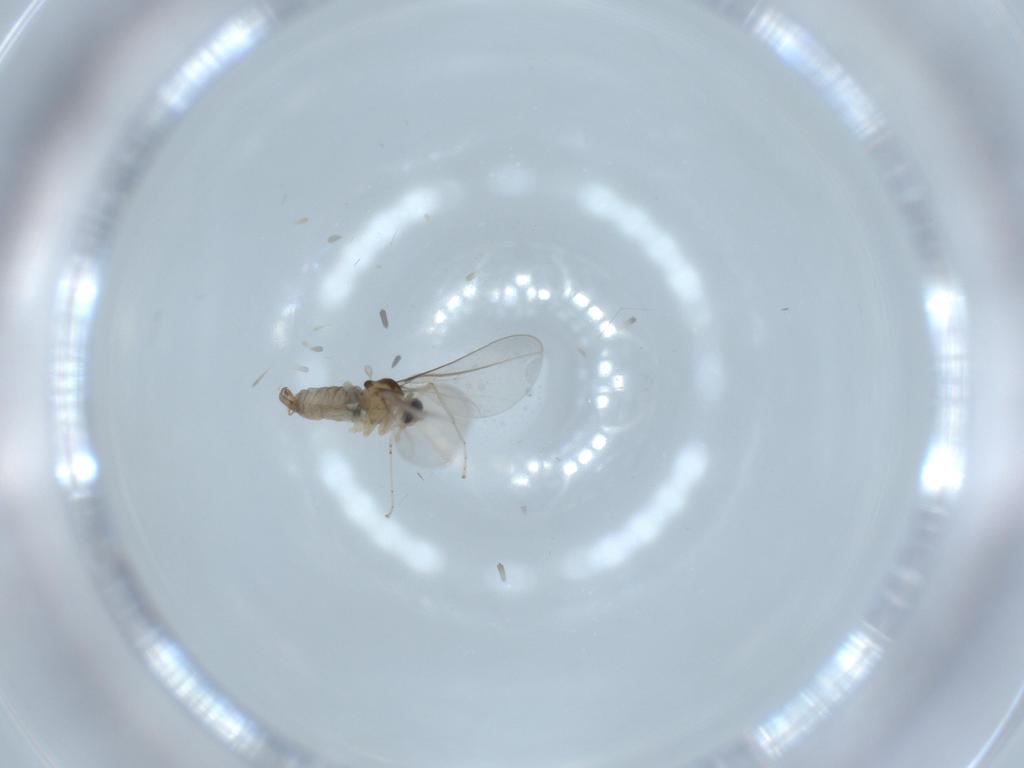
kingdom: Animalia
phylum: Arthropoda
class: Insecta
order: Diptera
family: Cecidomyiidae
